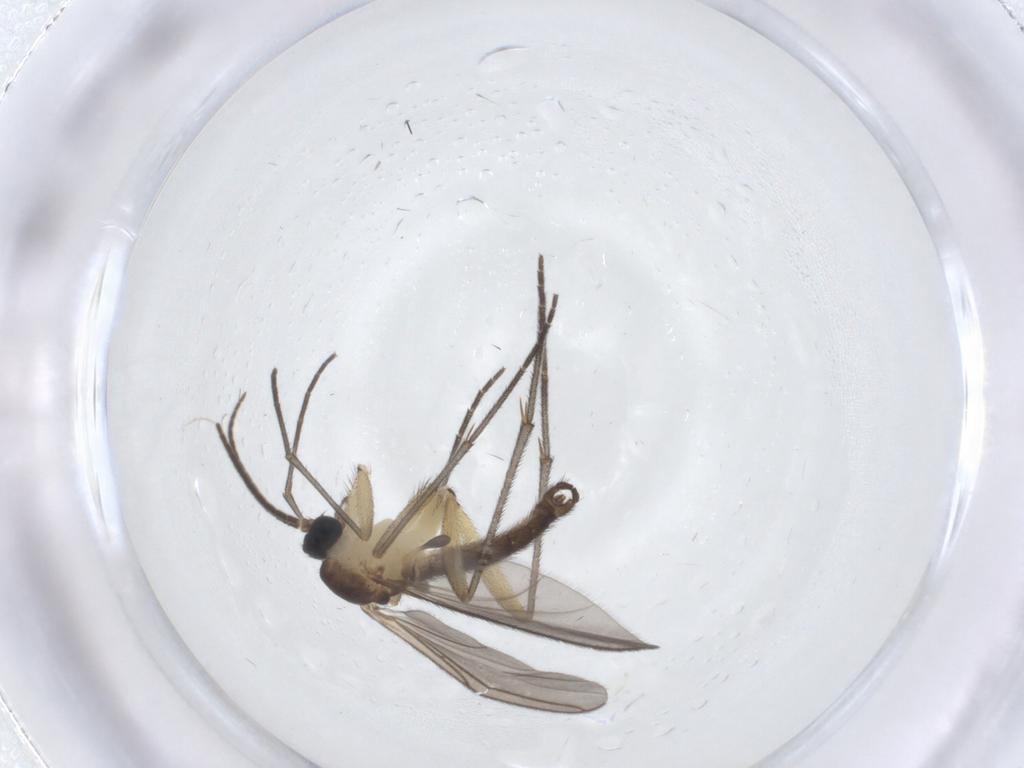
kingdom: Animalia
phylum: Arthropoda
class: Insecta
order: Diptera
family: Sciaridae
